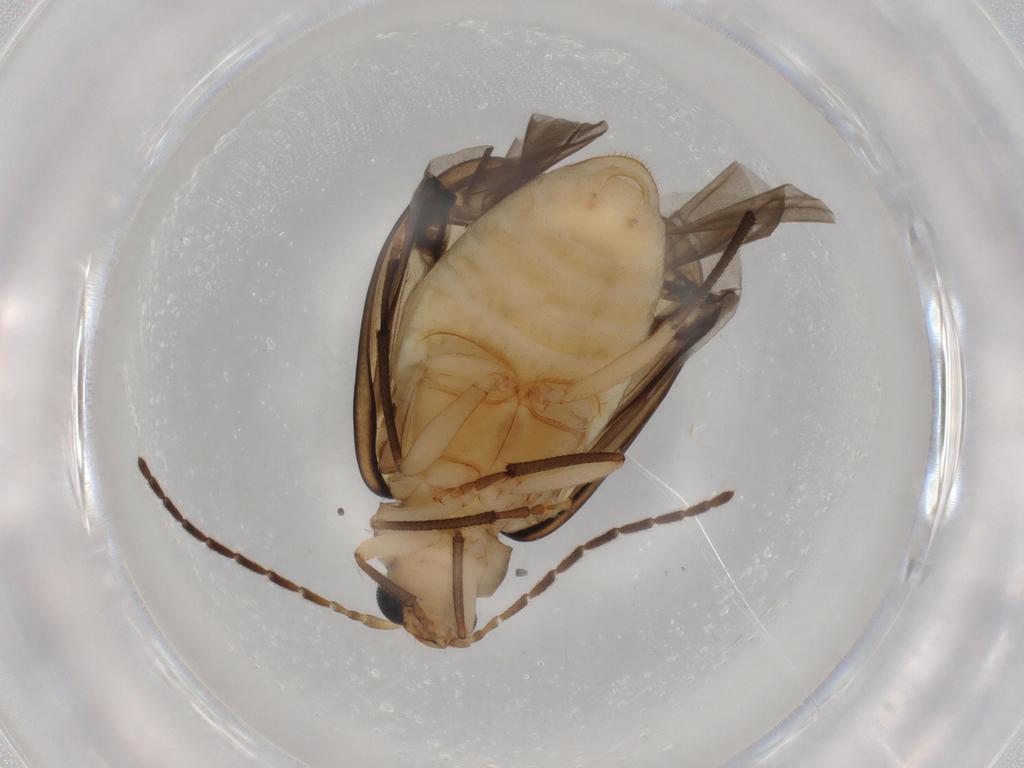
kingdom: Animalia
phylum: Arthropoda
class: Insecta
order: Coleoptera
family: Chrysomelidae
